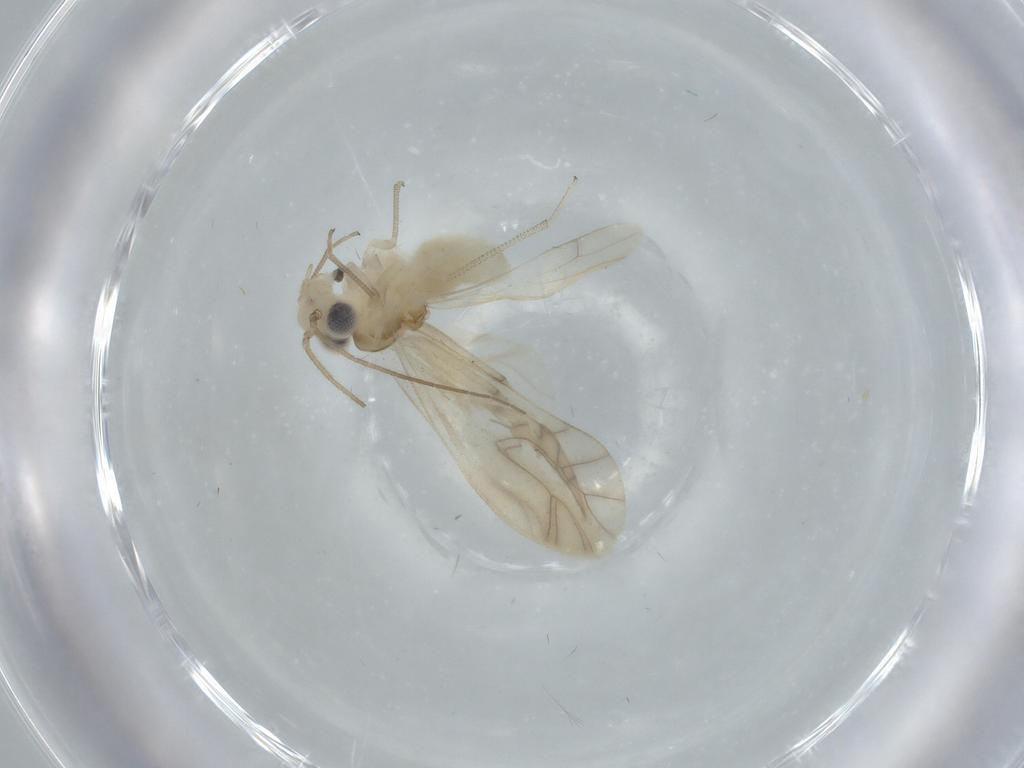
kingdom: Animalia
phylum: Arthropoda
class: Insecta
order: Psocodea
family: Caeciliusidae
